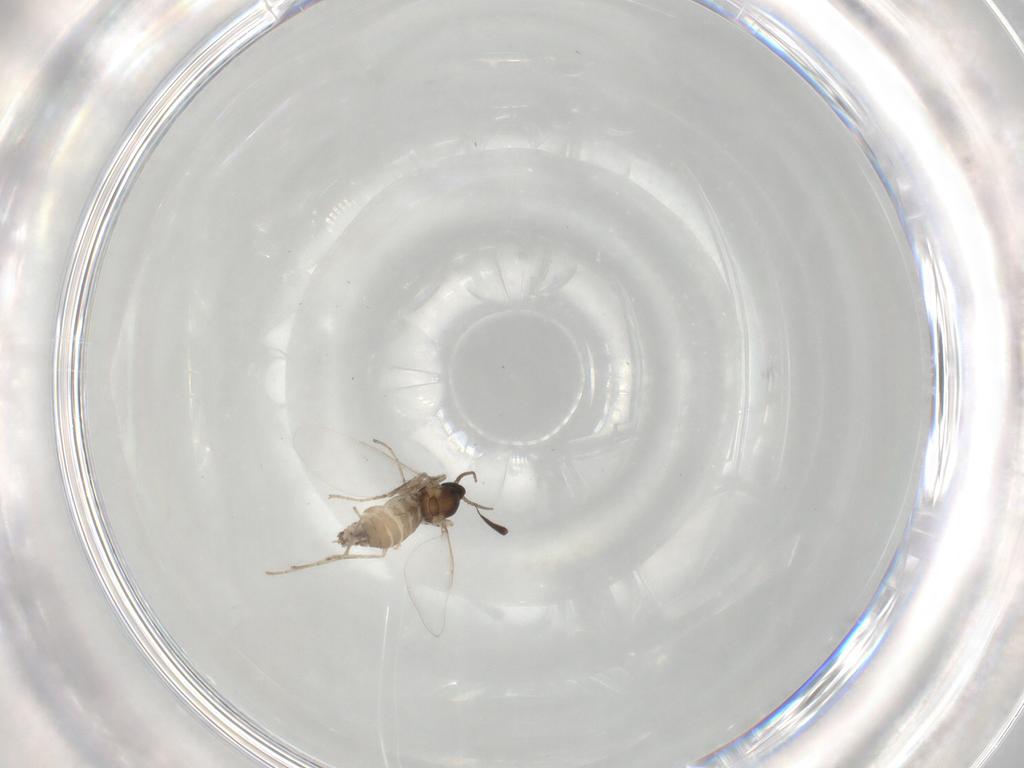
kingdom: Animalia
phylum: Arthropoda
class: Insecta
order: Diptera
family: Cecidomyiidae
